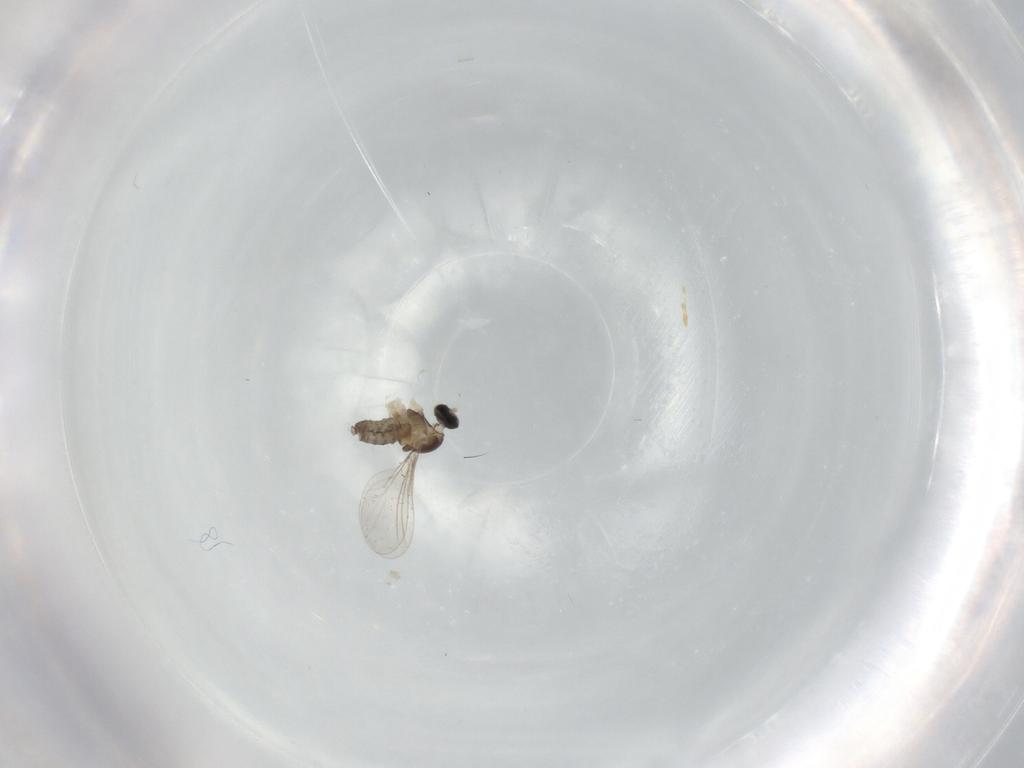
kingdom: Animalia
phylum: Arthropoda
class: Insecta
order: Diptera
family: Cecidomyiidae
